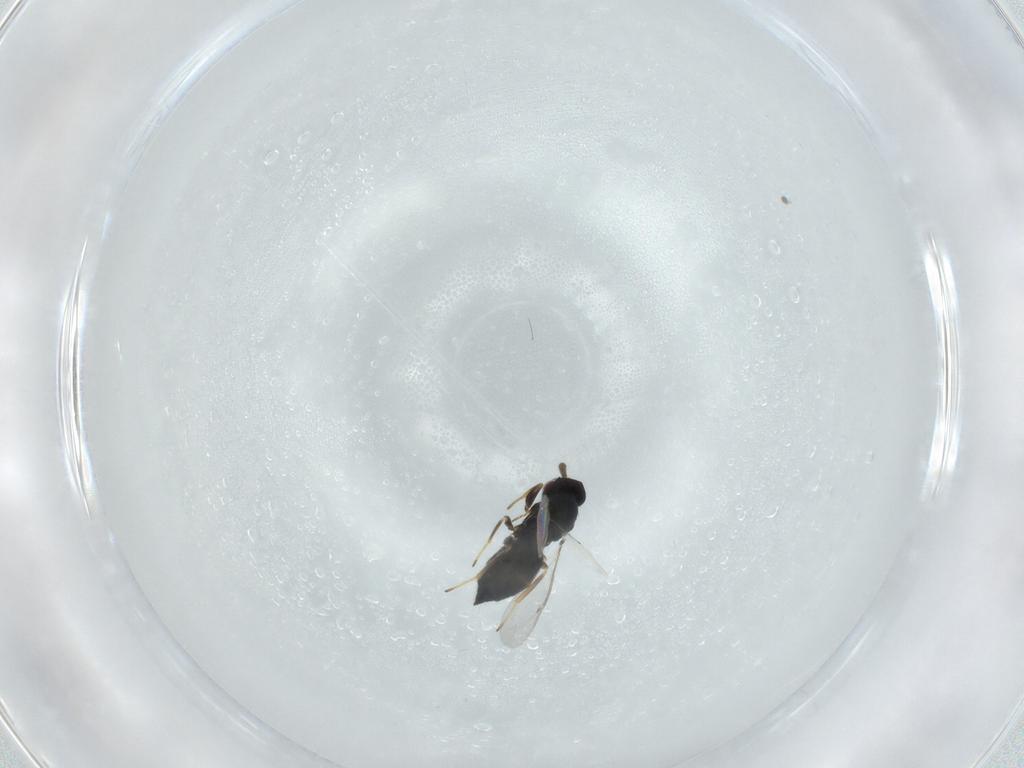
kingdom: Animalia
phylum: Arthropoda
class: Insecta
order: Hymenoptera
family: Eulophidae
